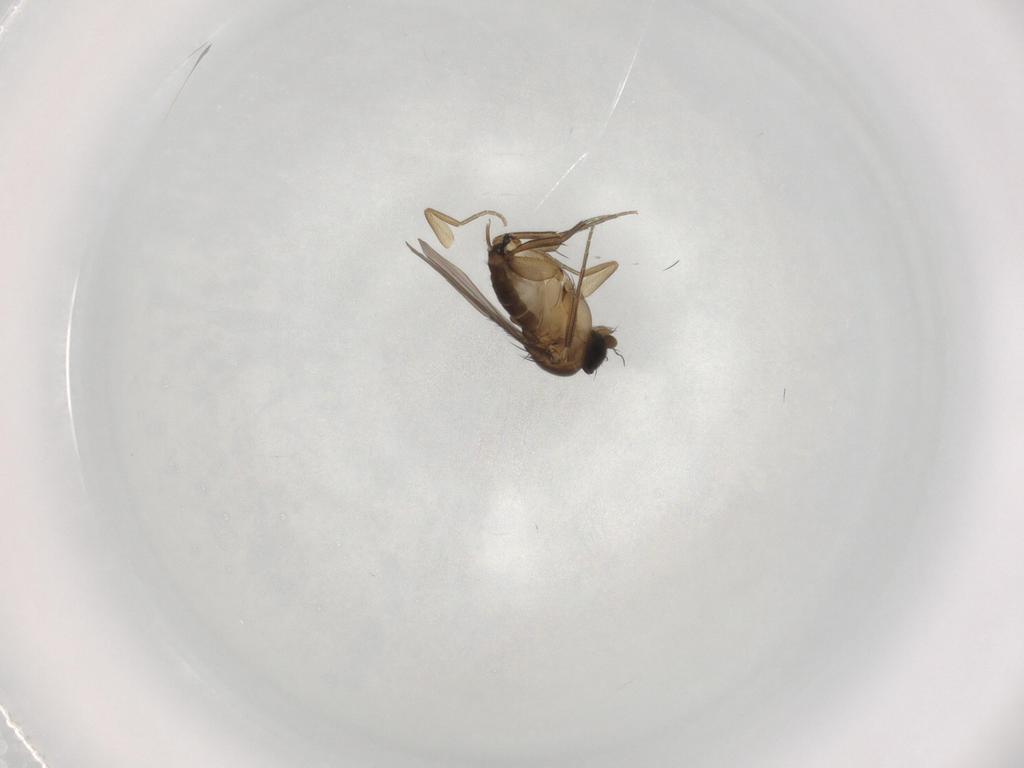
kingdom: Animalia
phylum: Arthropoda
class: Insecta
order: Diptera
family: Phoridae
